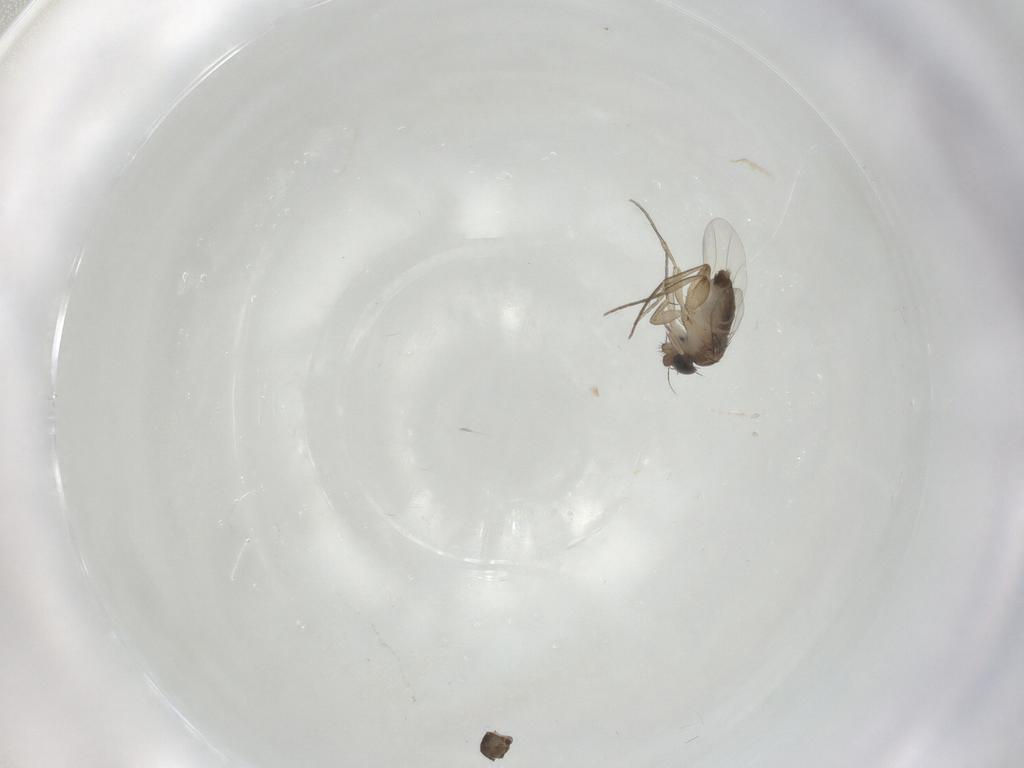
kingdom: Animalia
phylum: Arthropoda
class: Insecta
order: Diptera
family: Phoridae
